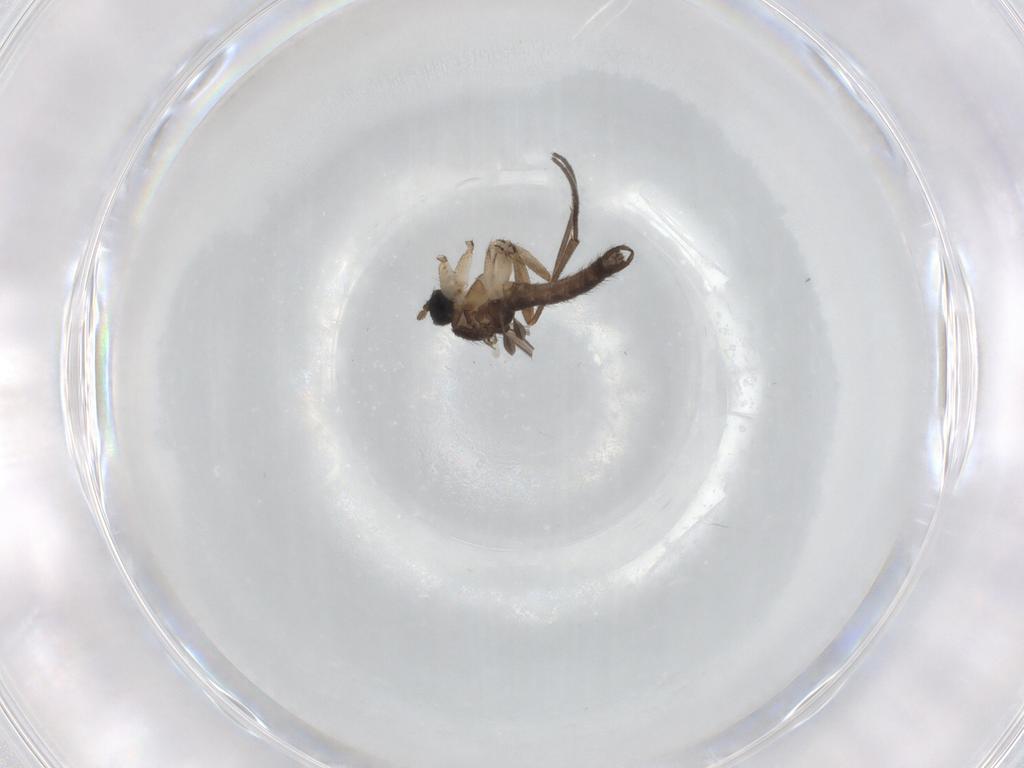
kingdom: Animalia
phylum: Arthropoda
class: Insecta
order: Diptera
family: Sciaridae
